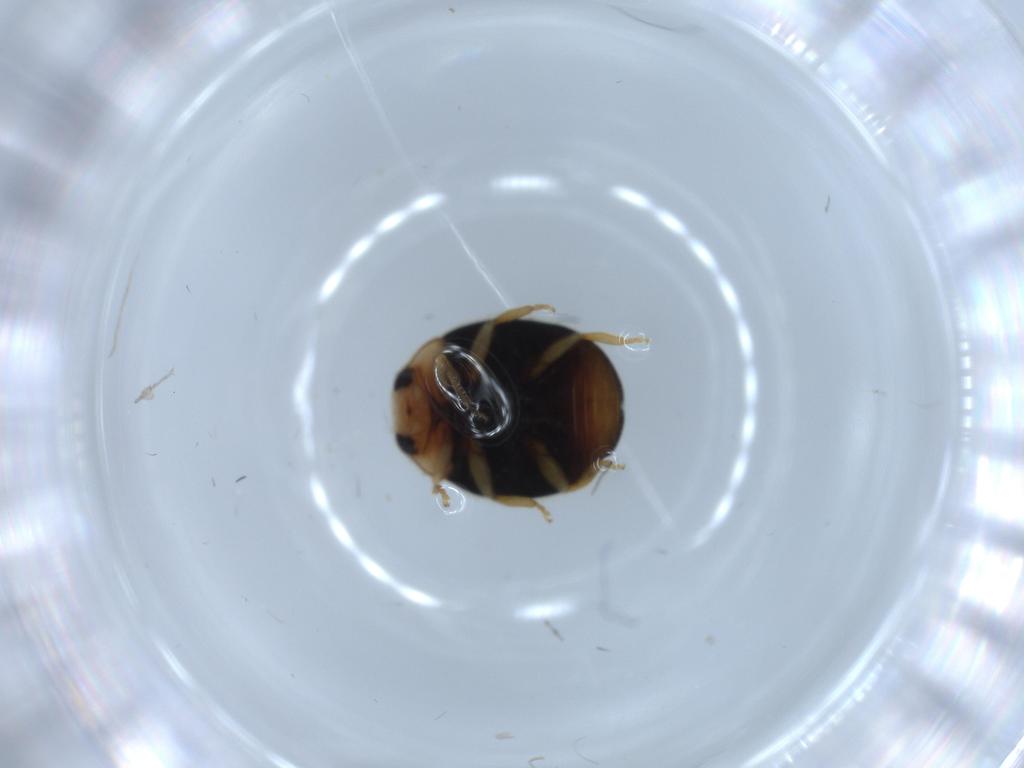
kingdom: Animalia
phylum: Arthropoda
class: Insecta
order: Coleoptera
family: Coccinellidae
